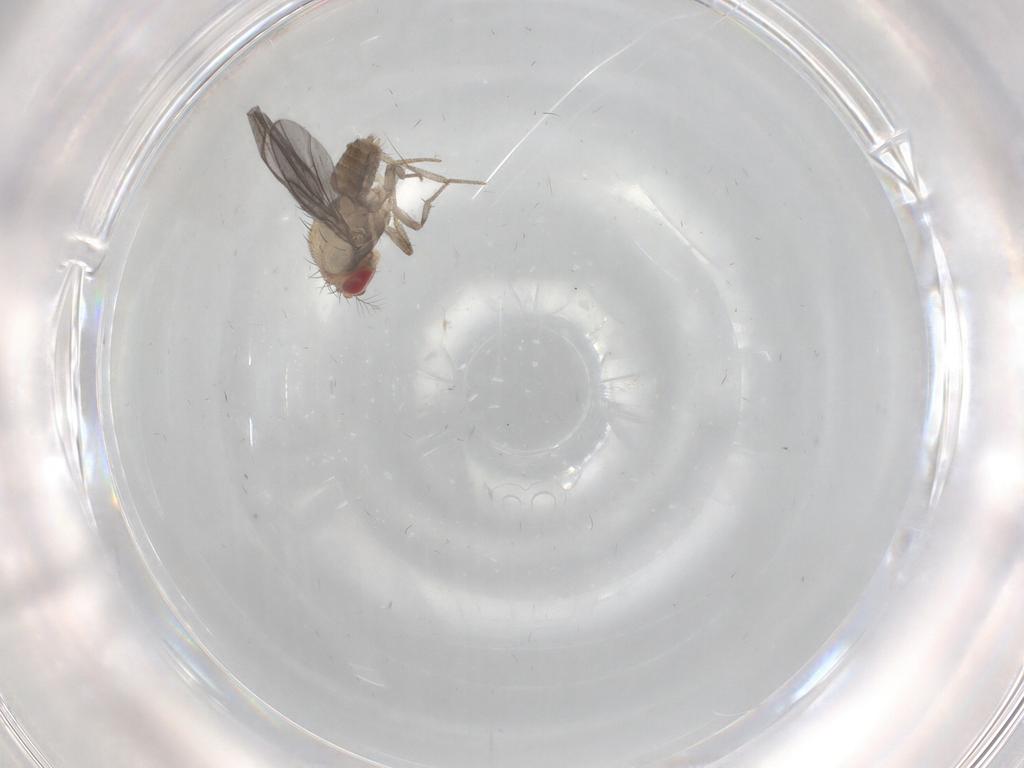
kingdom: Animalia
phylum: Arthropoda
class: Insecta
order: Diptera
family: Cecidomyiidae
